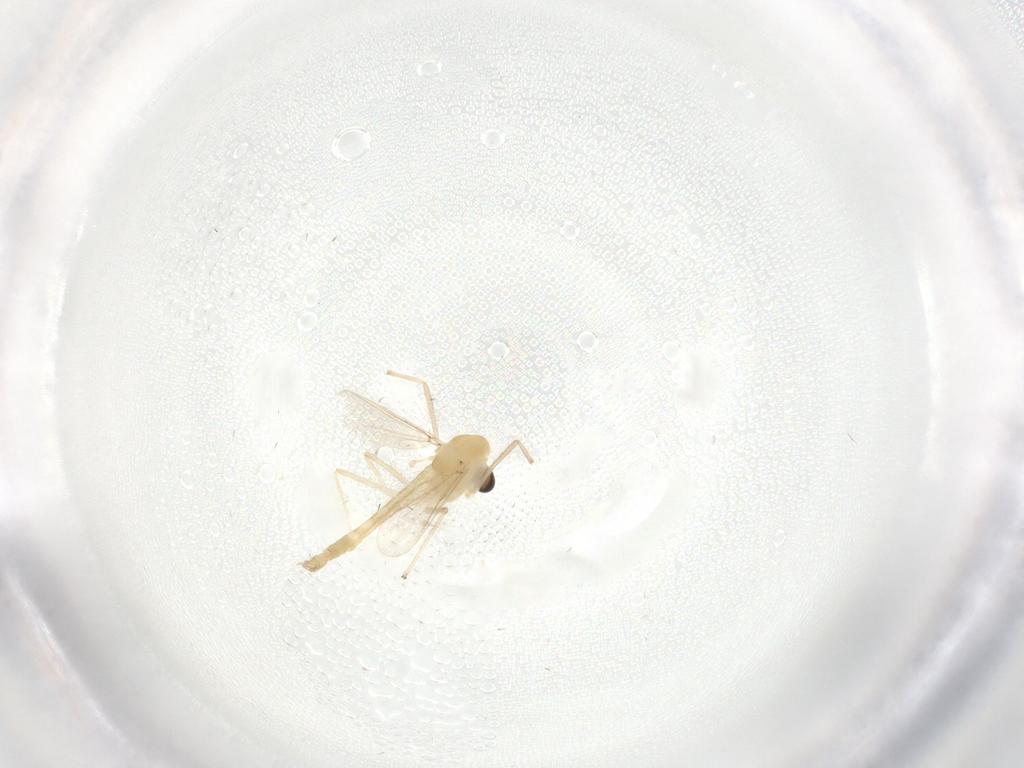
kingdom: Animalia
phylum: Arthropoda
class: Insecta
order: Diptera
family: Chironomidae
